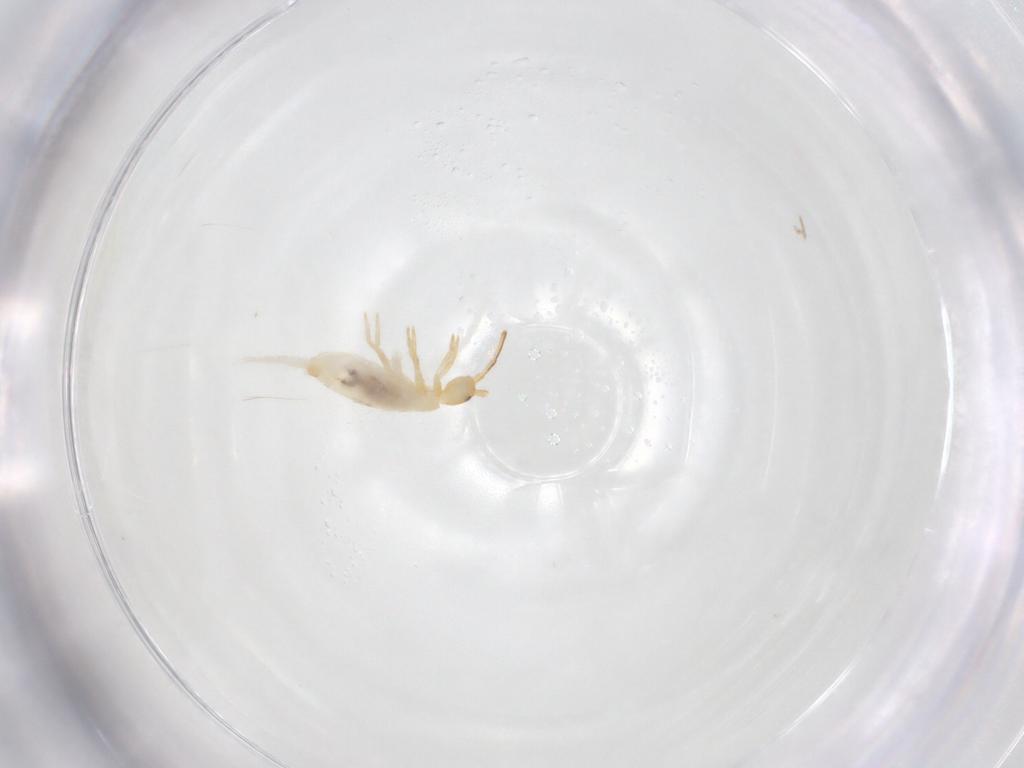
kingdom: Animalia
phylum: Arthropoda
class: Collembola
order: Entomobryomorpha
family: Entomobryidae
